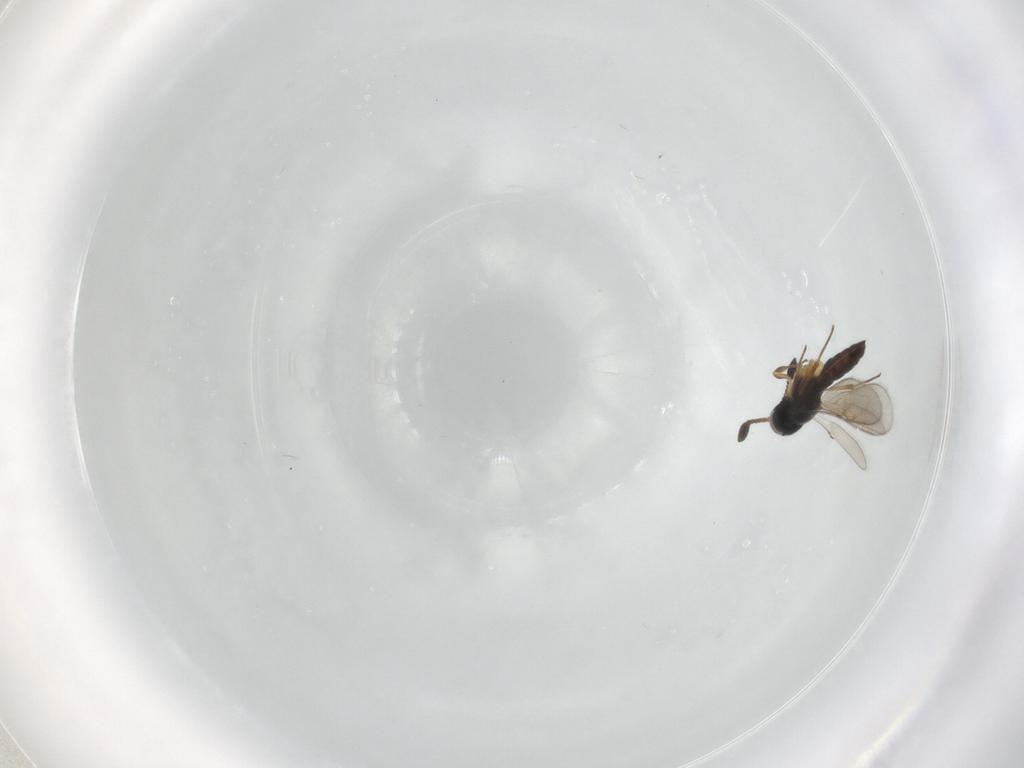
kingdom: Animalia
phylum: Arthropoda
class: Insecta
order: Hymenoptera
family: Scelionidae
